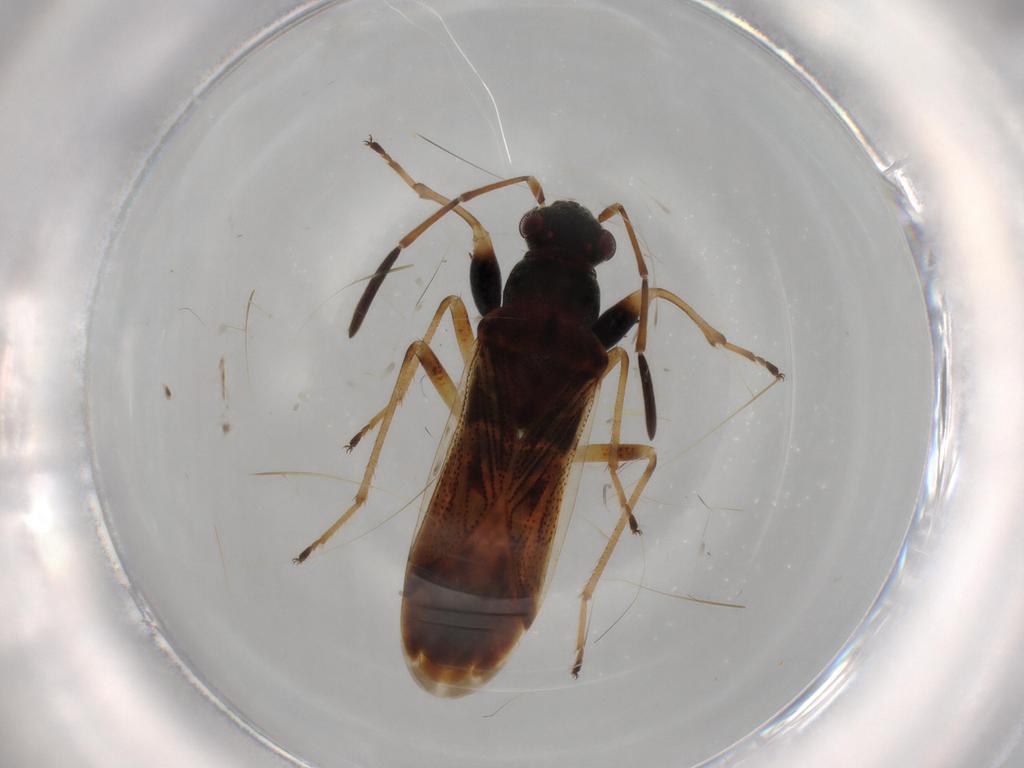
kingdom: Animalia
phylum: Arthropoda
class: Insecta
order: Hemiptera
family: Rhyparochromidae
